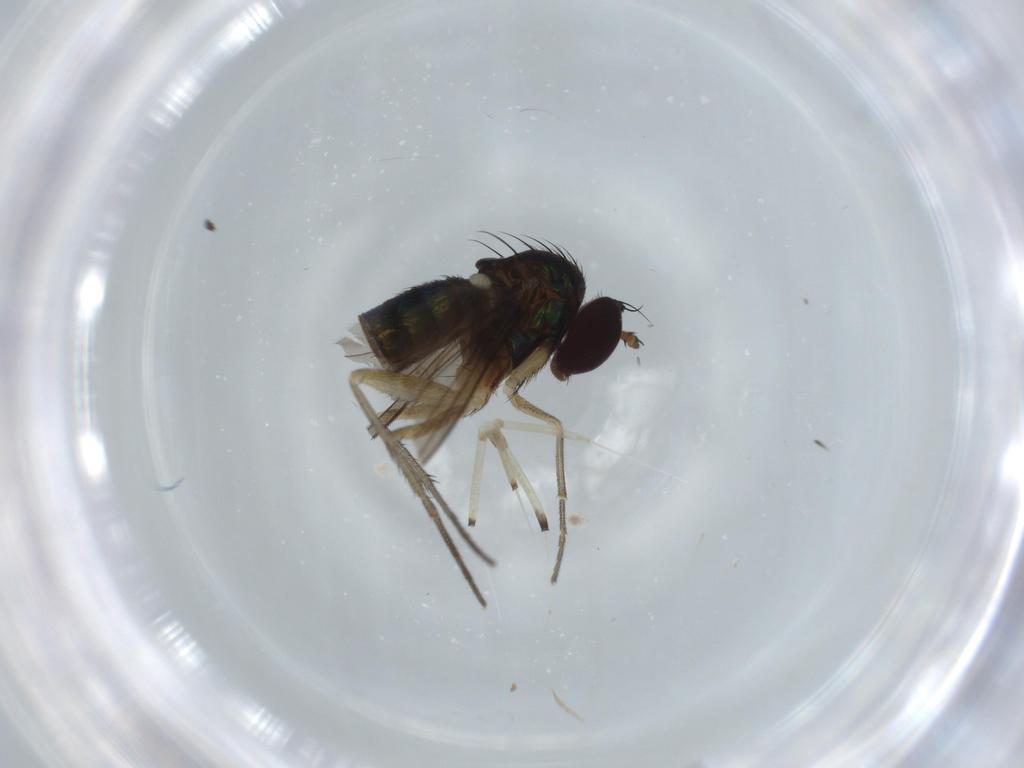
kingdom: Animalia
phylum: Arthropoda
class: Insecta
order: Diptera
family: Dolichopodidae
